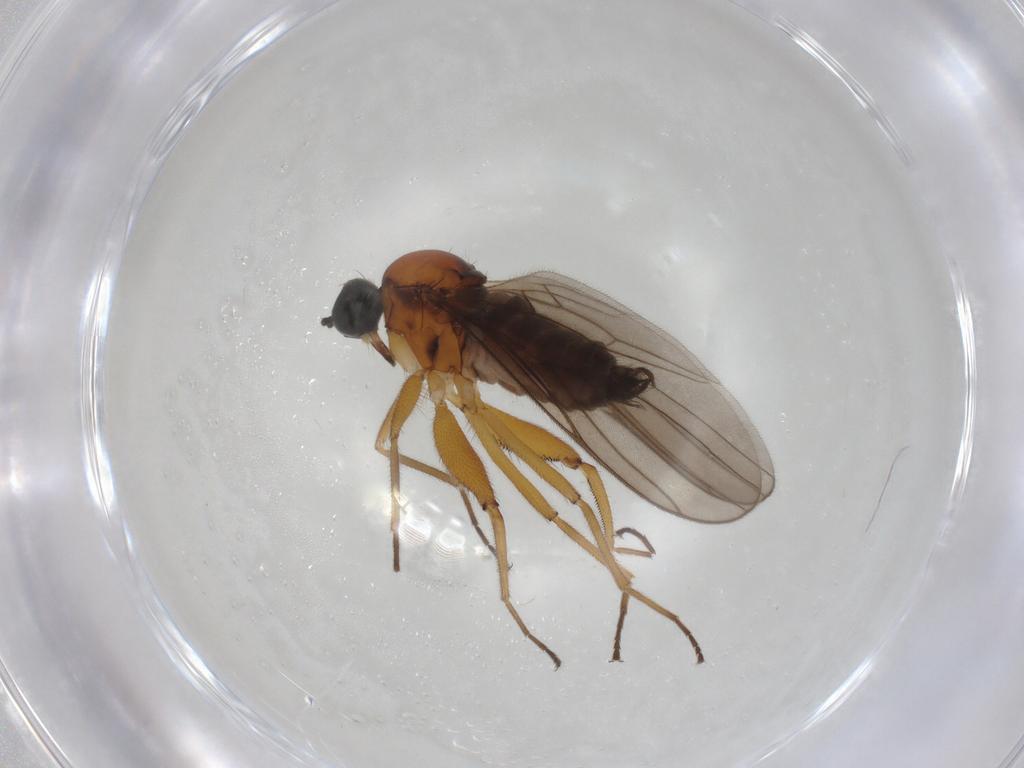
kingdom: Animalia
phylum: Arthropoda
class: Insecta
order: Diptera
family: Hybotidae
